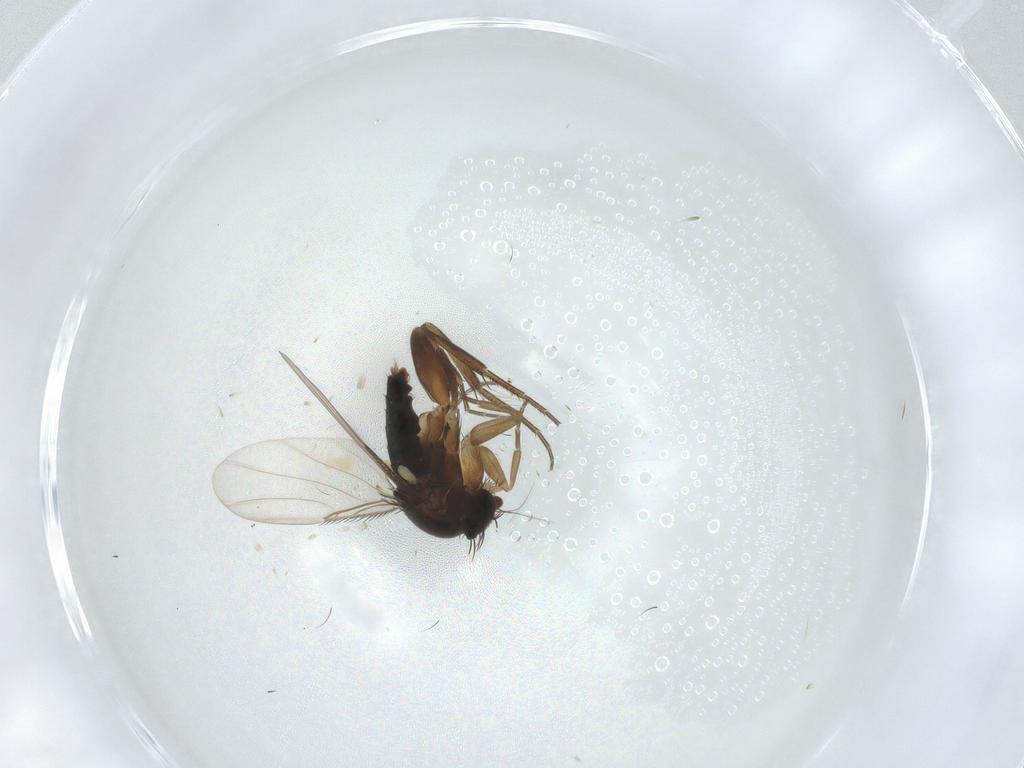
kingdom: Animalia
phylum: Arthropoda
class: Insecta
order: Diptera
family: Phoridae
